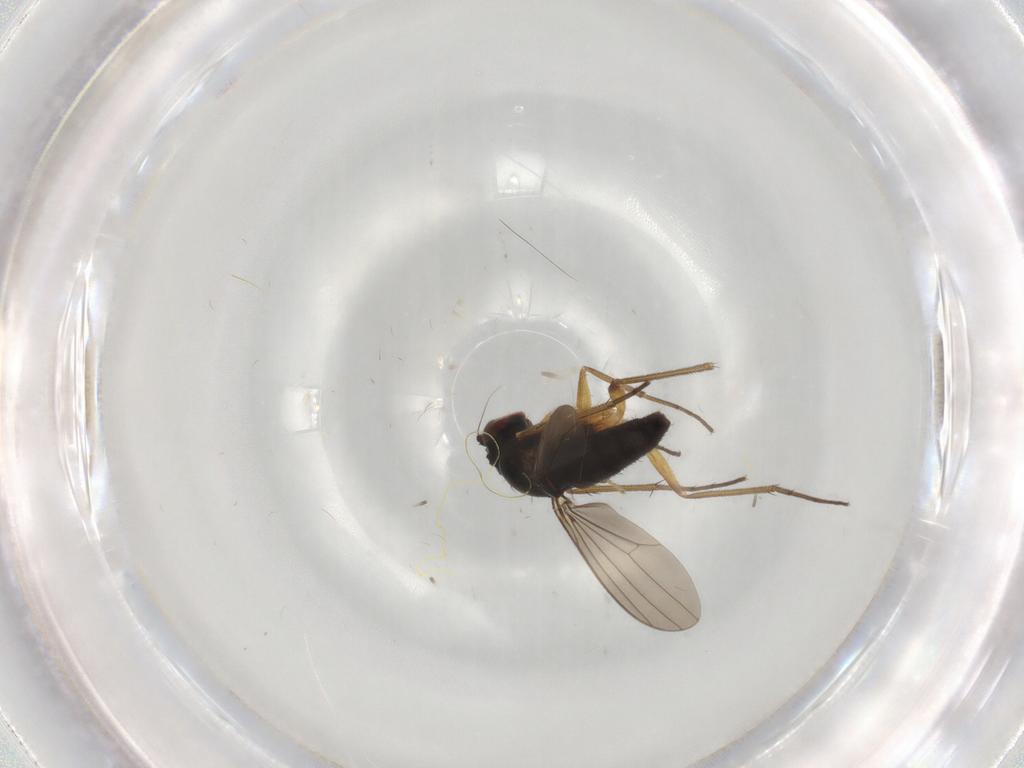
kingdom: Animalia
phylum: Arthropoda
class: Insecta
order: Diptera
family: Dolichopodidae
